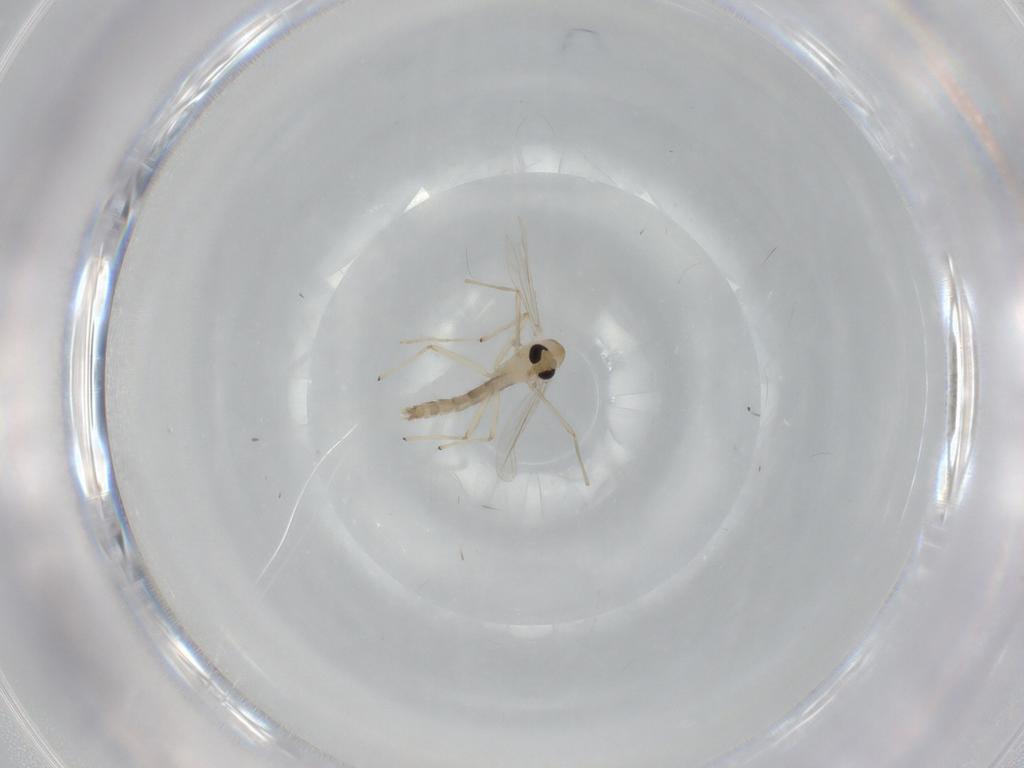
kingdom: Animalia
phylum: Arthropoda
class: Insecta
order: Diptera
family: Chironomidae
